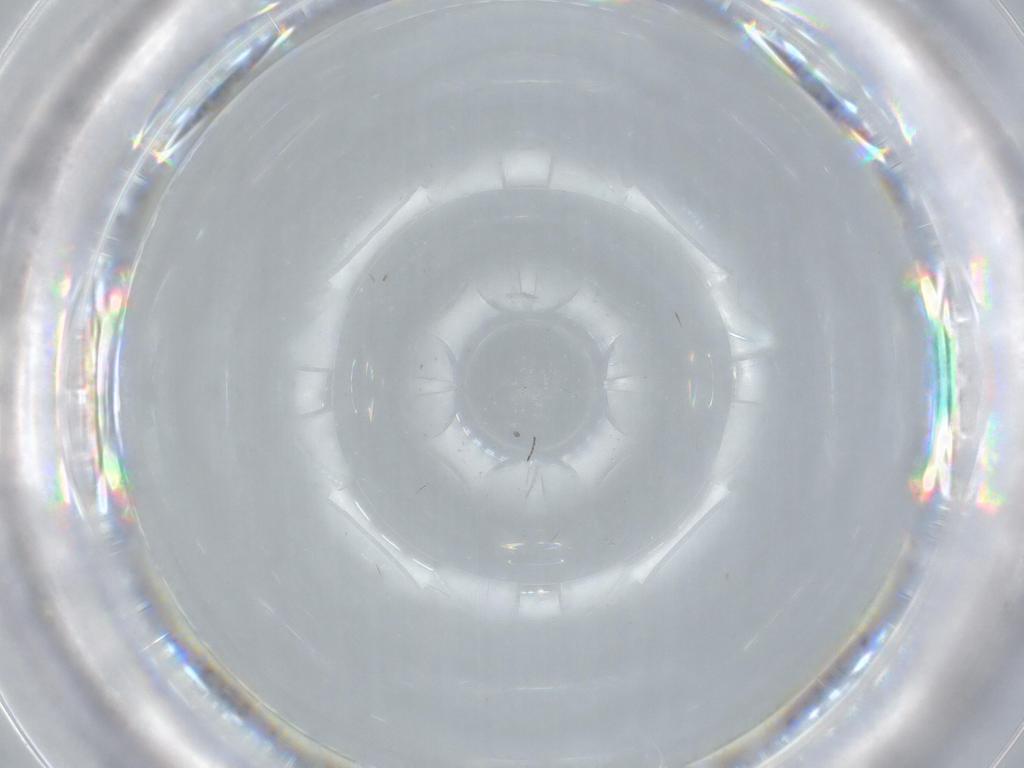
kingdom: Animalia
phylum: Arthropoda
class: Insecta
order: Diptera
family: Cecidomyiidae
